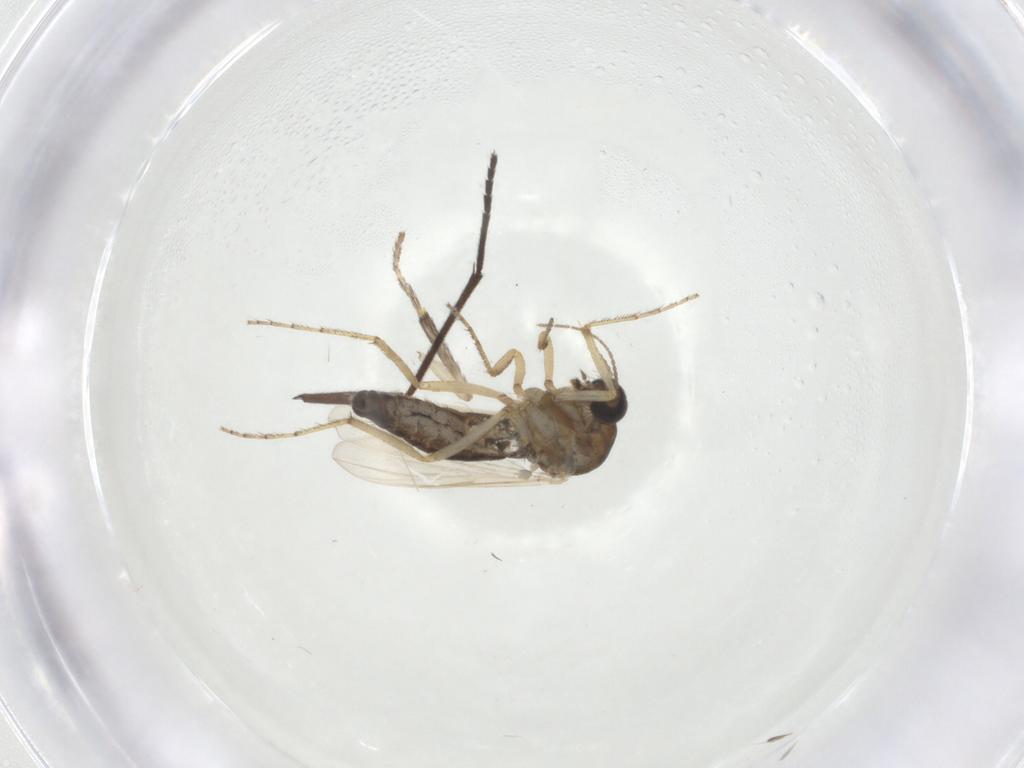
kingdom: Animalia
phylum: Arthropoda
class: Insecta
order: Diptera
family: Ceratopogonidae
